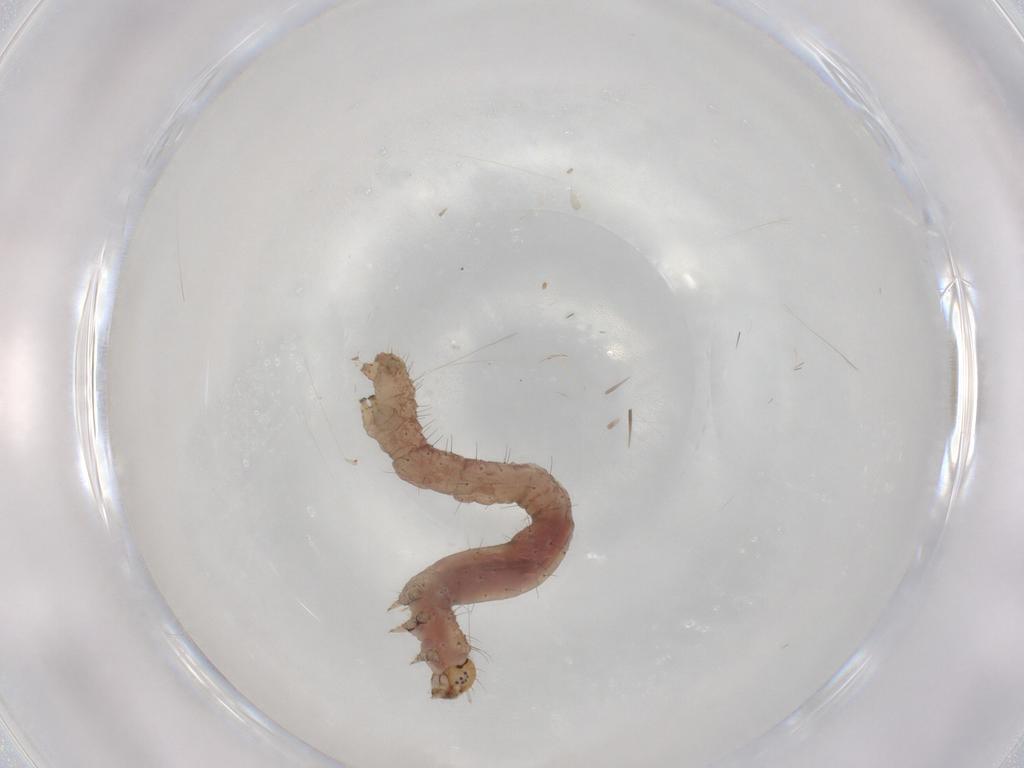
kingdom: Animalia
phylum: Arthropoda
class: Insecta
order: Lepidoptera
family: Geometridae
